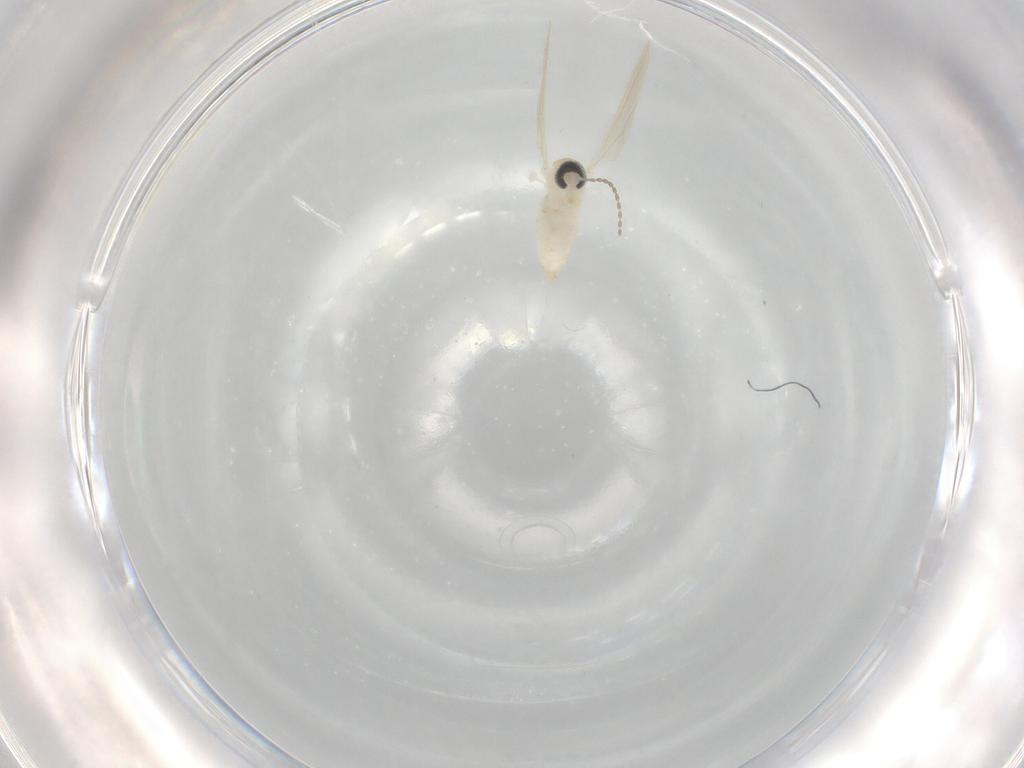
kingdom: Animalia
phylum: Arthropoda
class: Insecta
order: Diptera
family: Cecidomyiidae
